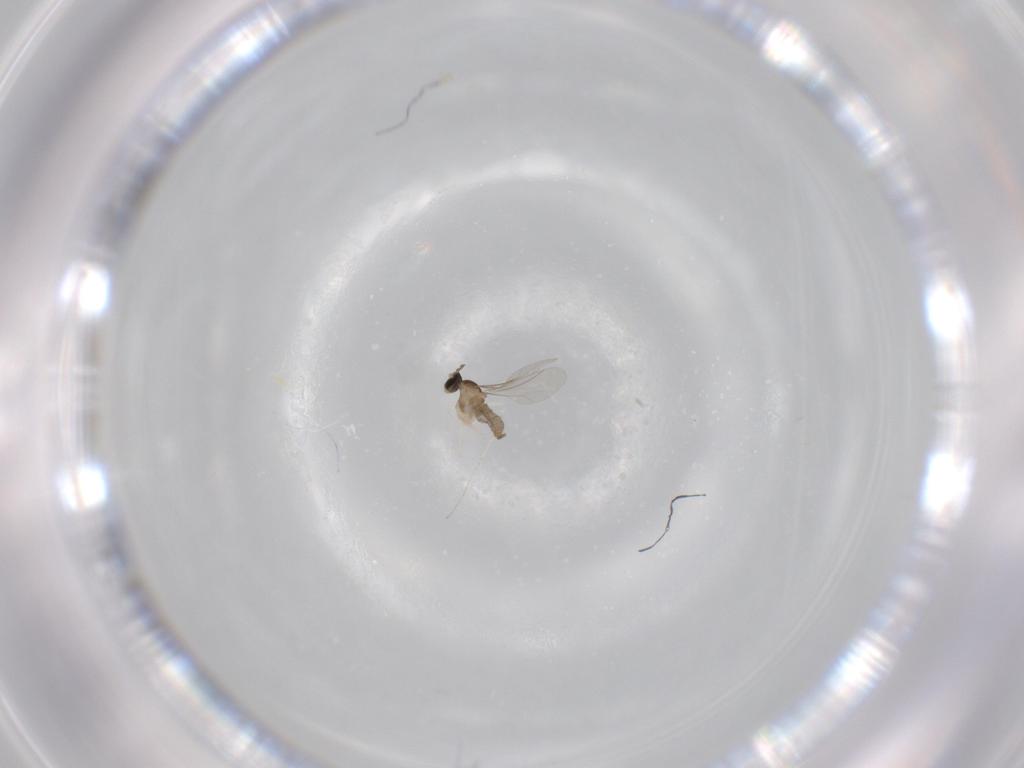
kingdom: Animalia
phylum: Arthropoda
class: Insecta
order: Diptera
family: Cecidomyiidae
